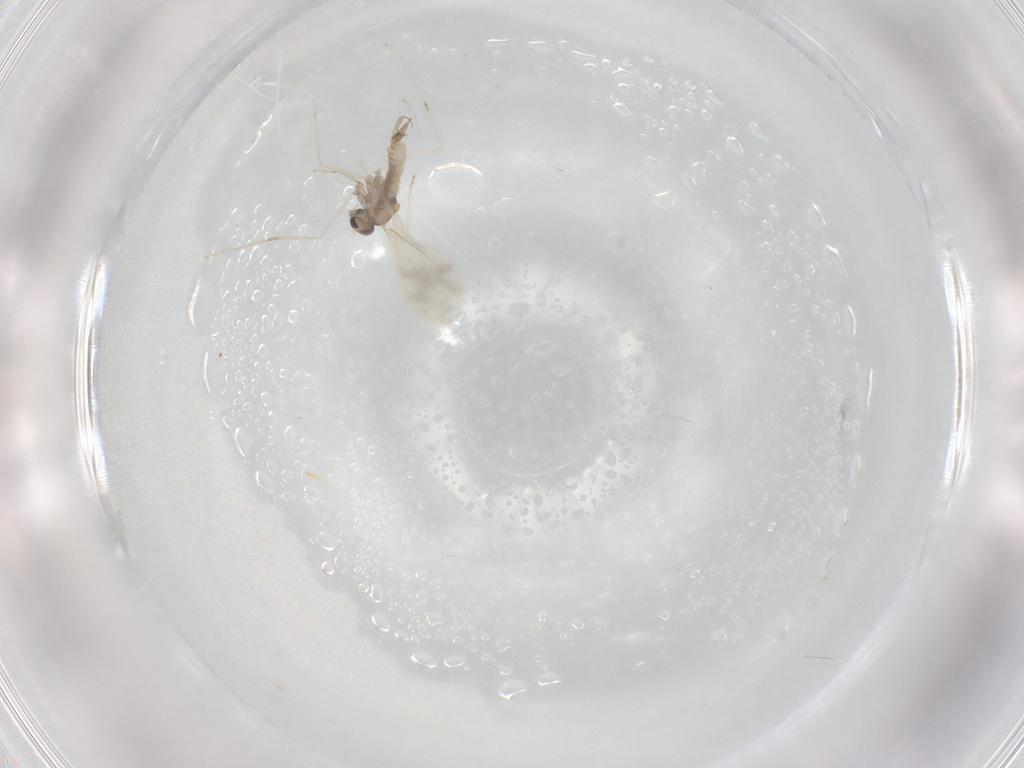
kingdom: Animalia
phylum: Arthropoda
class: Insecta
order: Diptera
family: Cecidomyiidae
